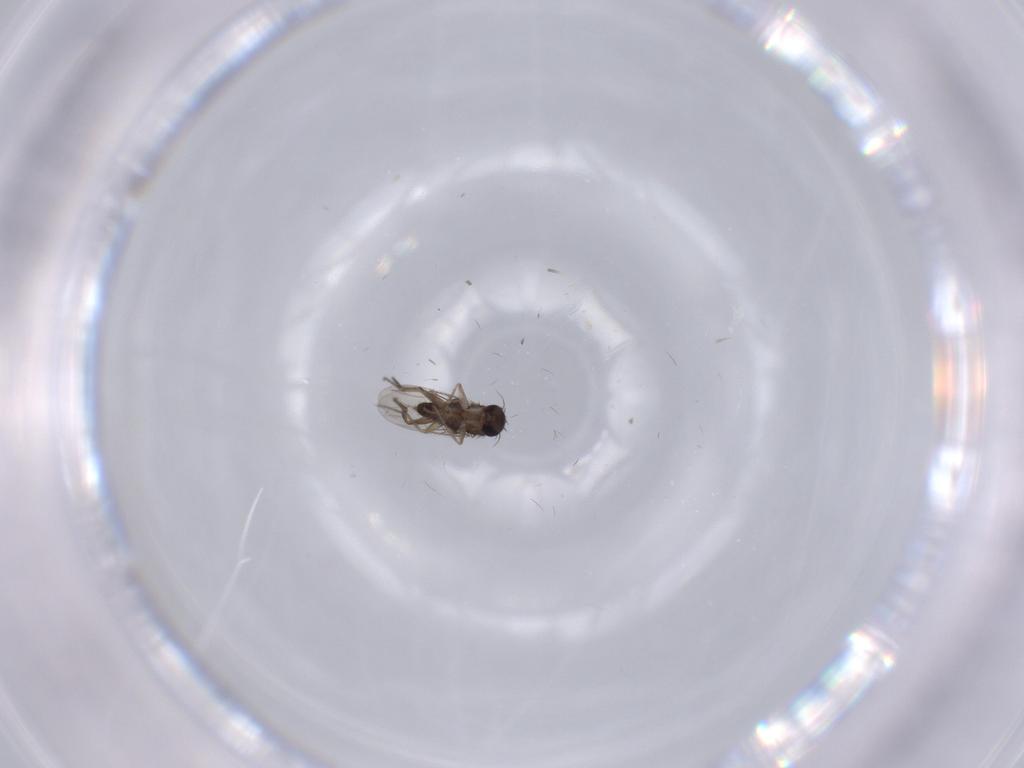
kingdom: Animalia
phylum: Arthropoda
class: Insecta
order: Diptera
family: Phoridae
